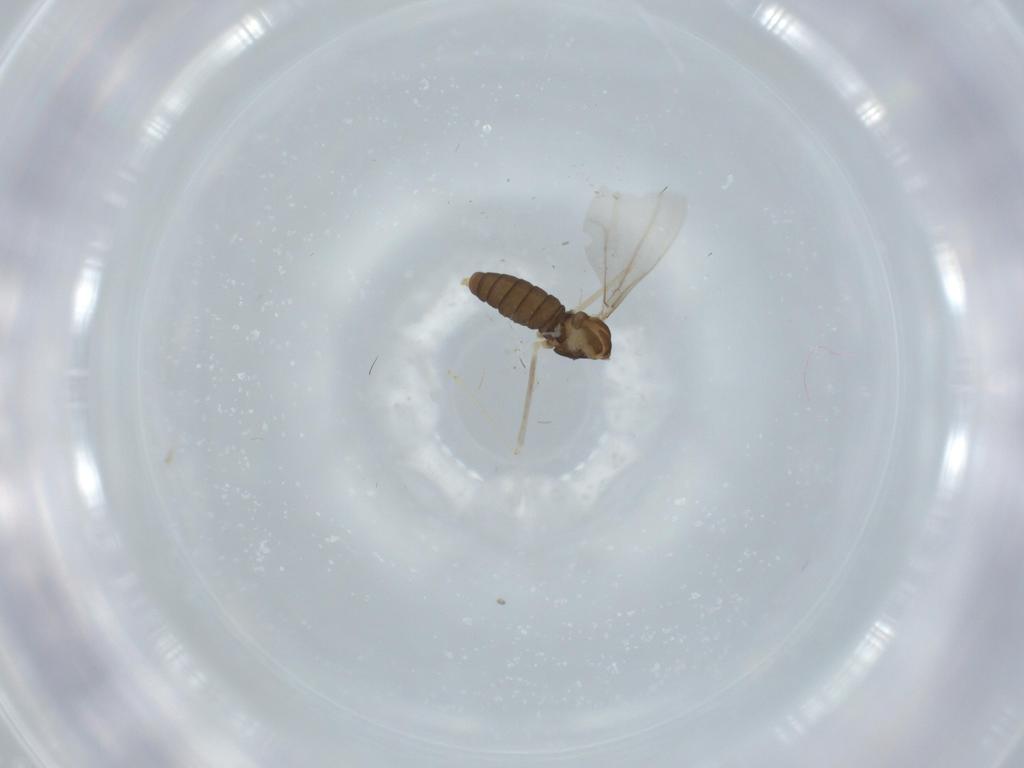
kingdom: Animalia
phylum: Arthropoda
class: Insecta
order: Diptera
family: Cecidomyiidae
